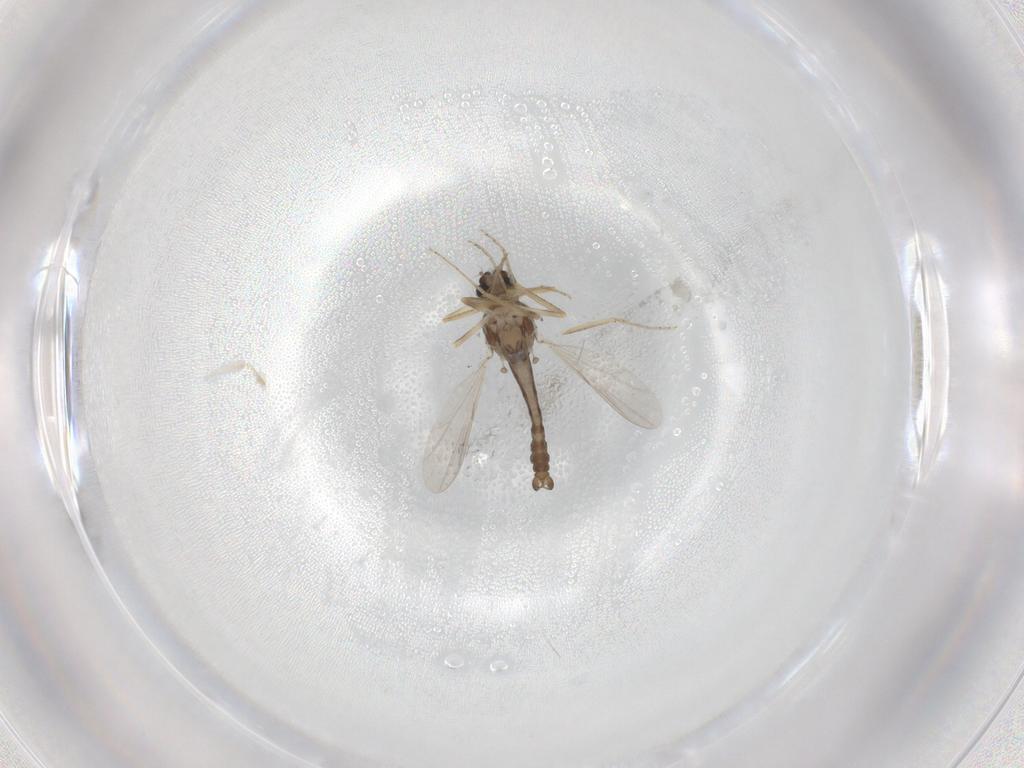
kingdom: Animalia
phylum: Arthropoda
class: Insecta
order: Diptera
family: Ceratopogonidae
